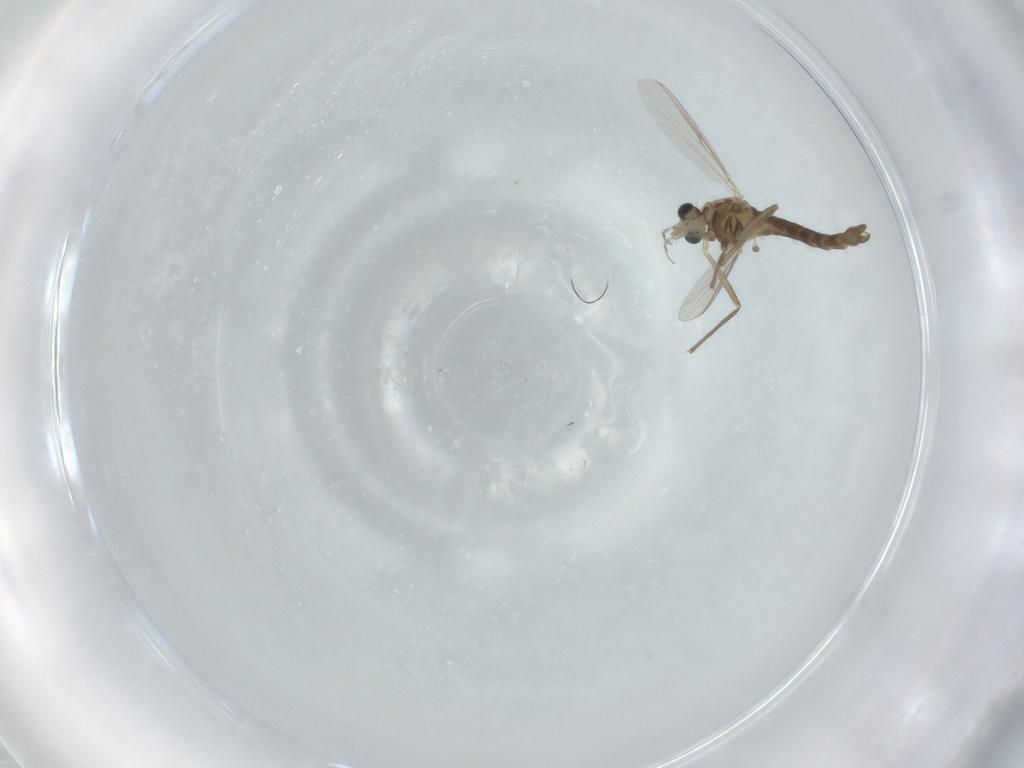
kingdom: Animalia
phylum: Arthropoda
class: Insecta
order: Diptera
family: Chironomidae
